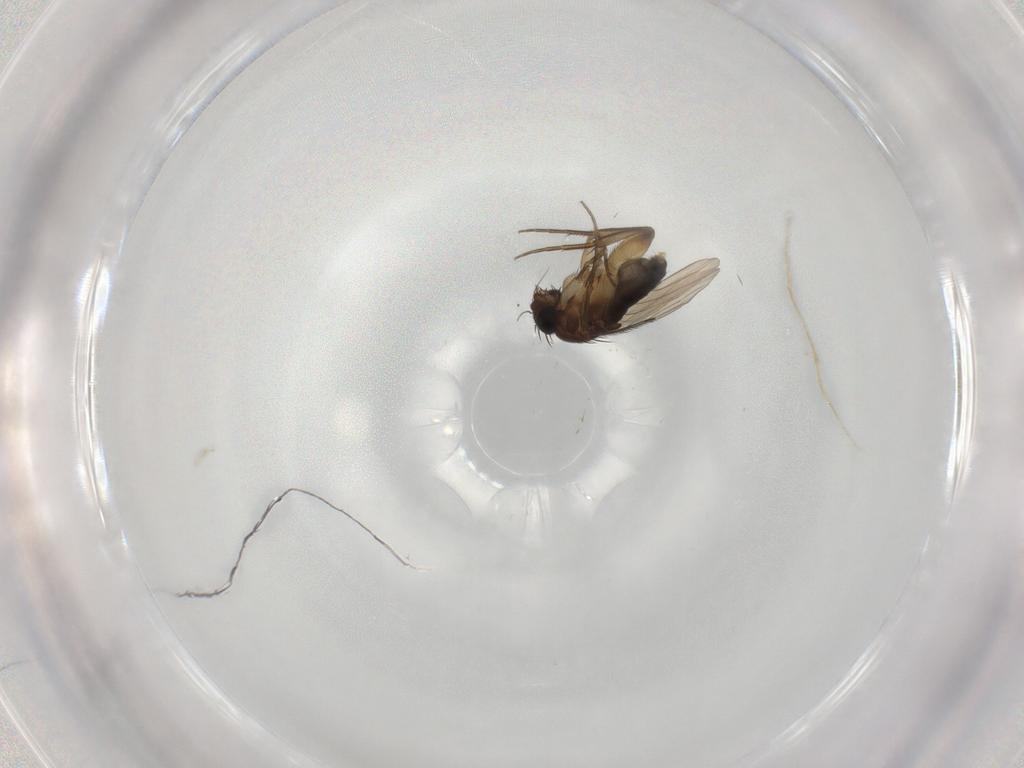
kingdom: Animalia
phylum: Arthropoda
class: Insecta
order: Diptera
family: Phoridae
